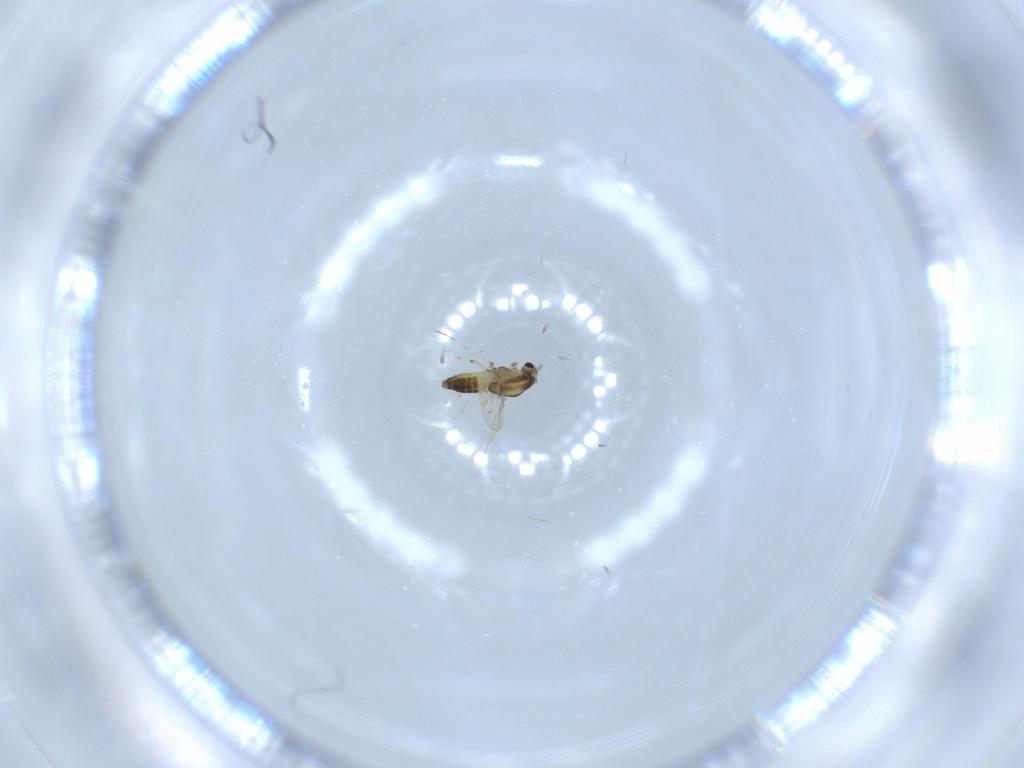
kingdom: Animalia
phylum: Arthropoda
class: Insecta
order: Diptera
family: Chironomidae
